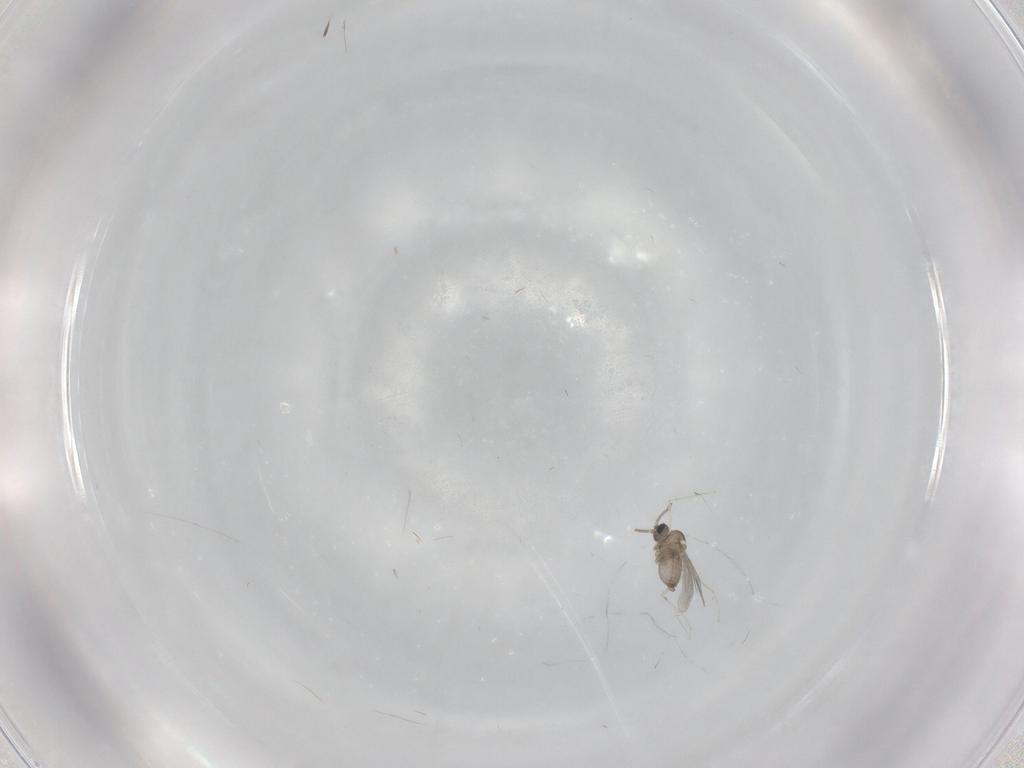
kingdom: Animalia
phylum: Arthropoda
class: Insecta
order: Diptera
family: Cecidomyiidae
